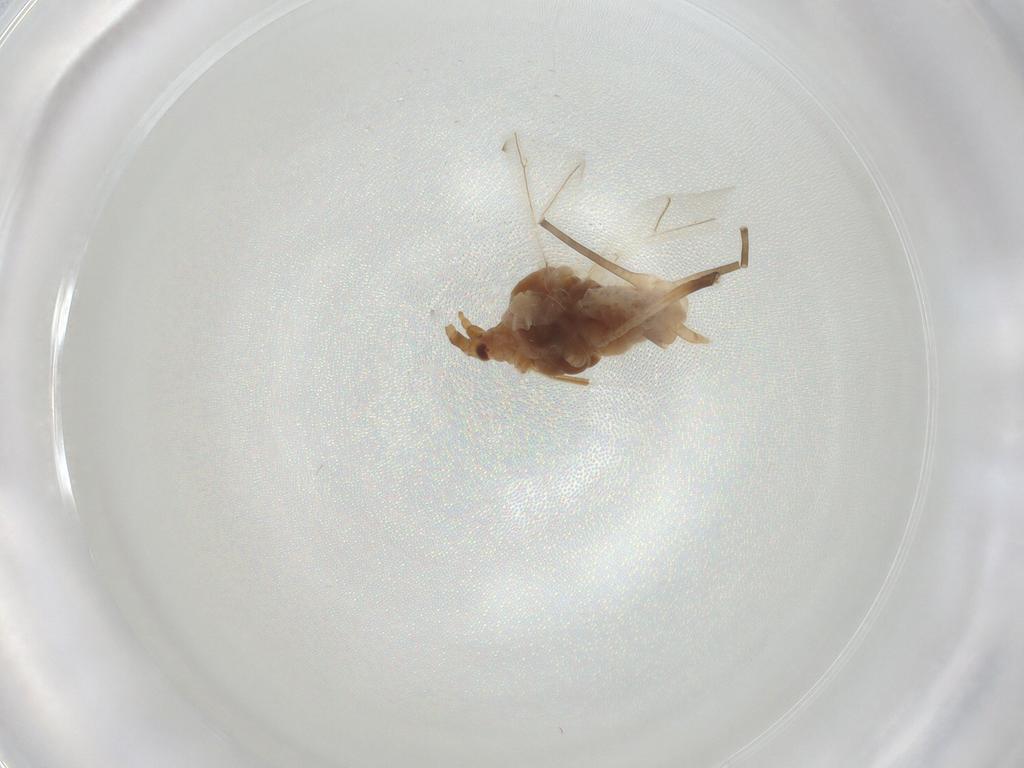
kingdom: Animalia
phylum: Arthropoda
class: Insecta
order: Hemiptera
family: Aphididae
